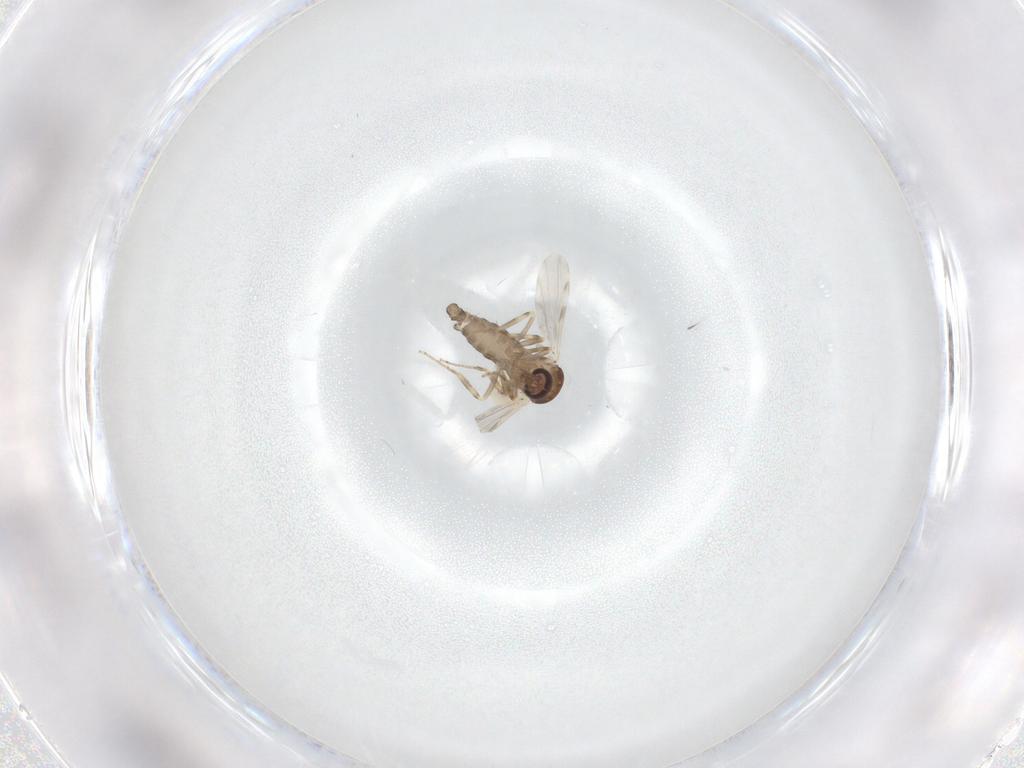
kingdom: Animalia
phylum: Arthropoda
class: Insecta
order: Diptera
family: Ceratopogonidae
